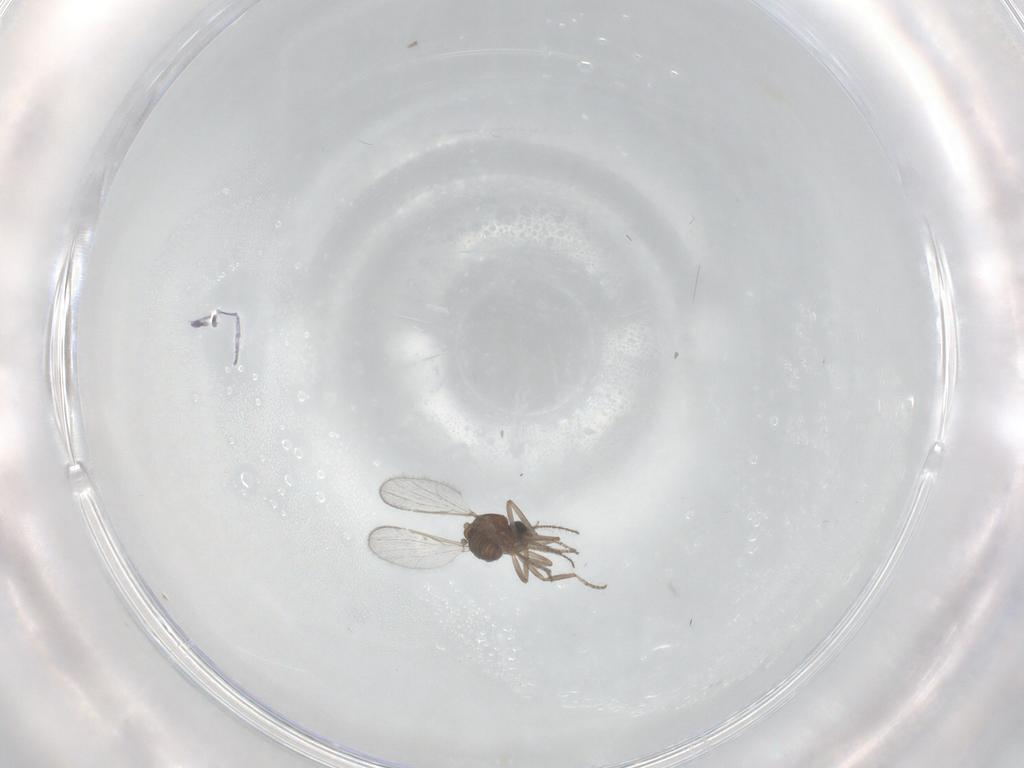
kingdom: Animalia
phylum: Arthropoda
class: Insecta
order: Diptera
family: Ceratopogonidae
